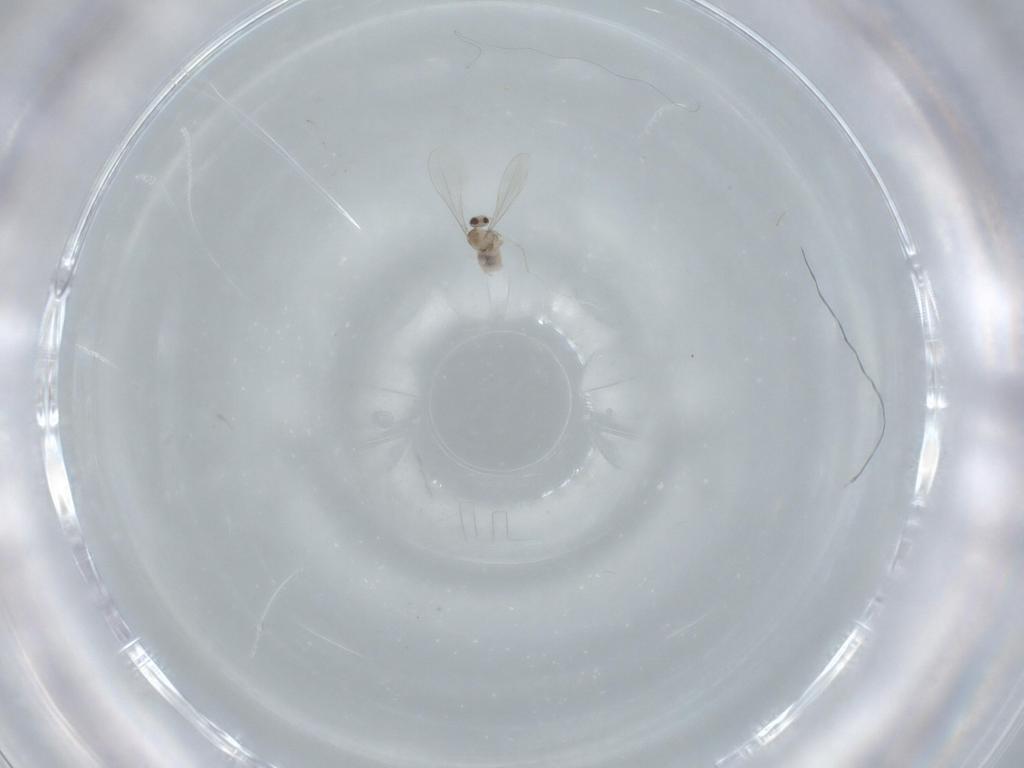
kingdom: Animalia
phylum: Arthropoda
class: Insecta
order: Diptera
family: Cecidomyiidae
